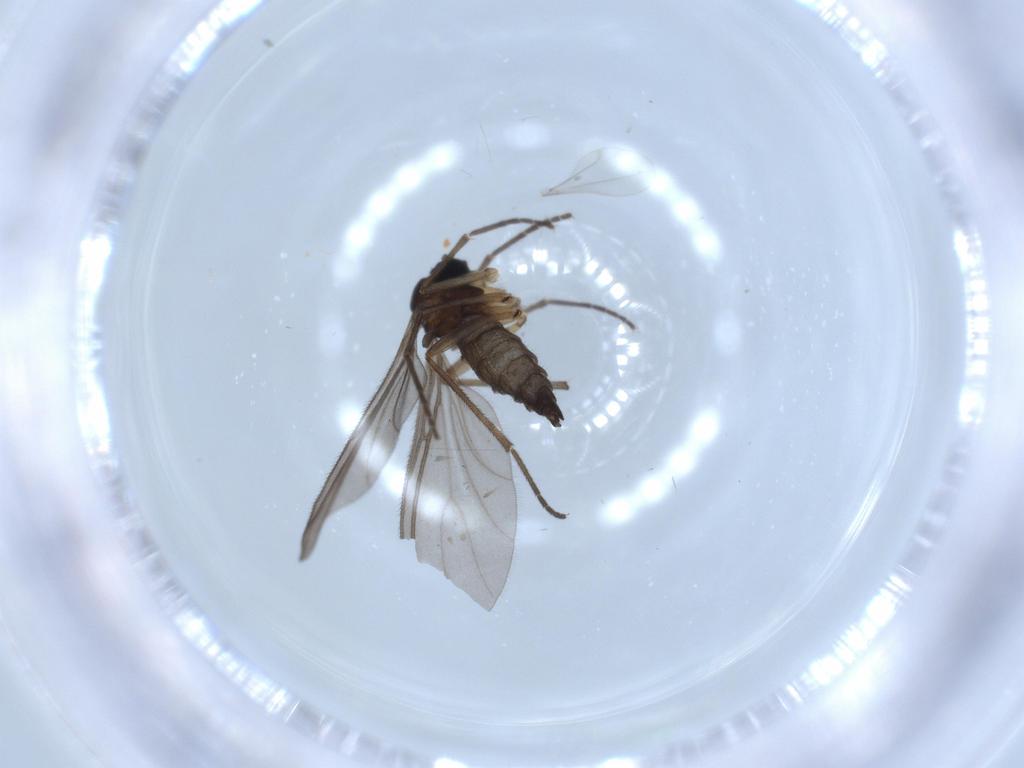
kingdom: Animalia
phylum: Arthropoda
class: Insecta
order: Diptera
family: Sciaridae
